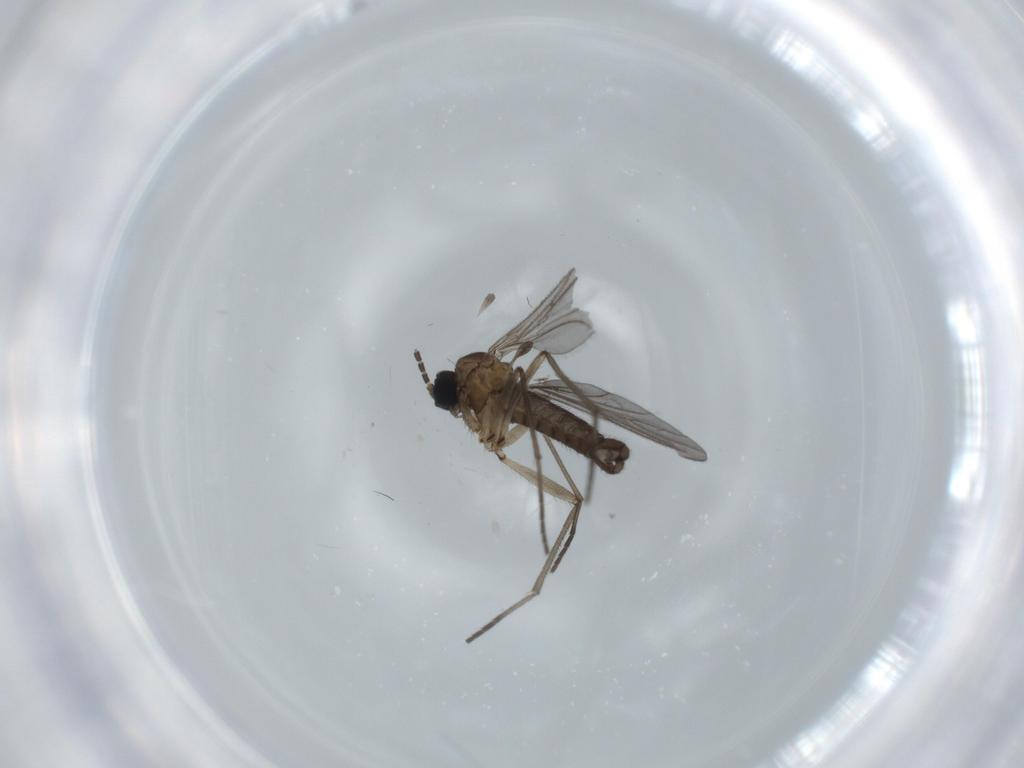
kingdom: Animalia
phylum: Arthropoda
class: Insecta
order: Diptera
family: Sciaridae
